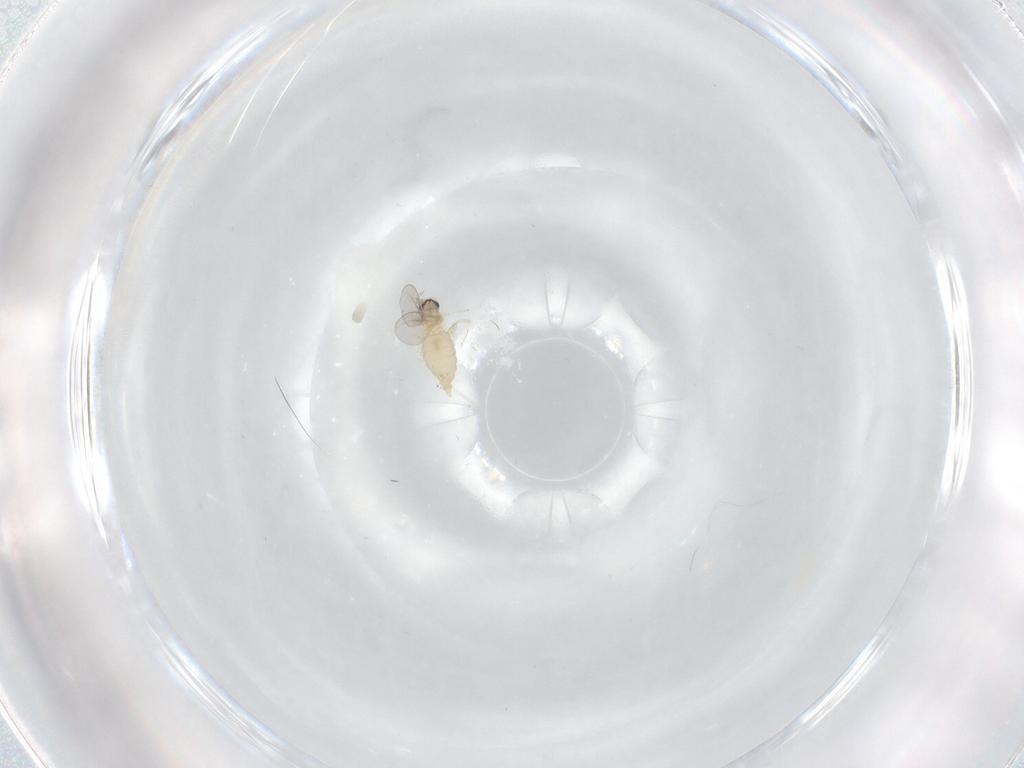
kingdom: Animalia
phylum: Arthropoda
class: Insecta
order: Diptera
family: Cecidomyiidae
